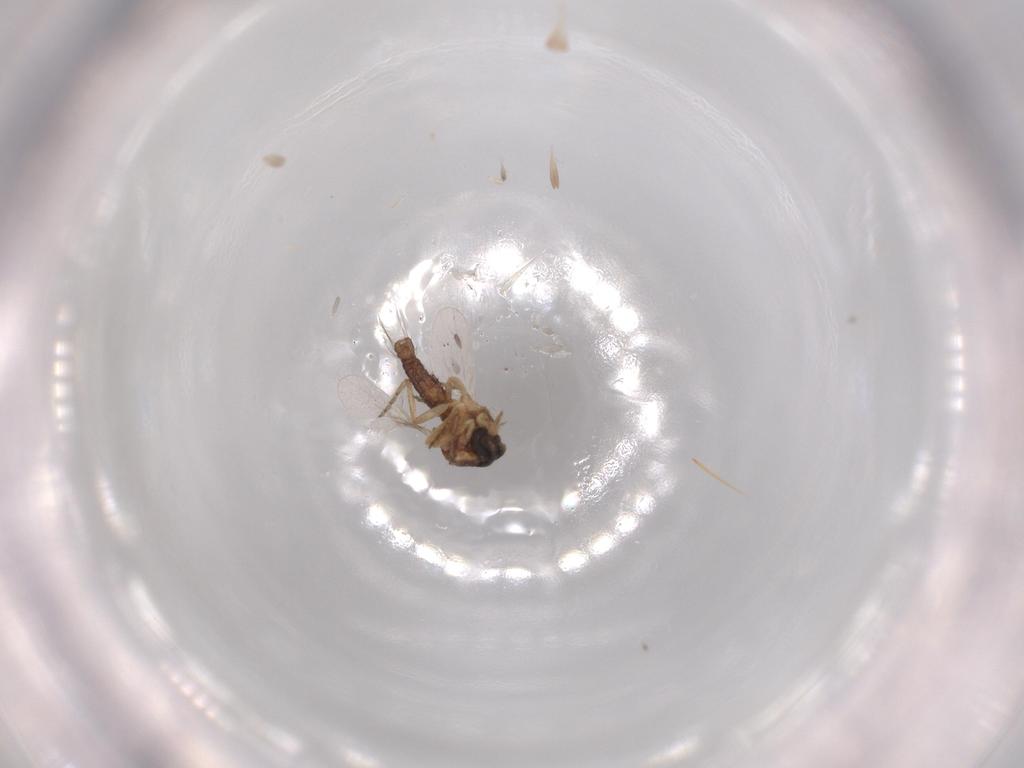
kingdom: Animalia
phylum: Arthropoda
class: Insecta
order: Diptera
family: Ceratopogonidae
